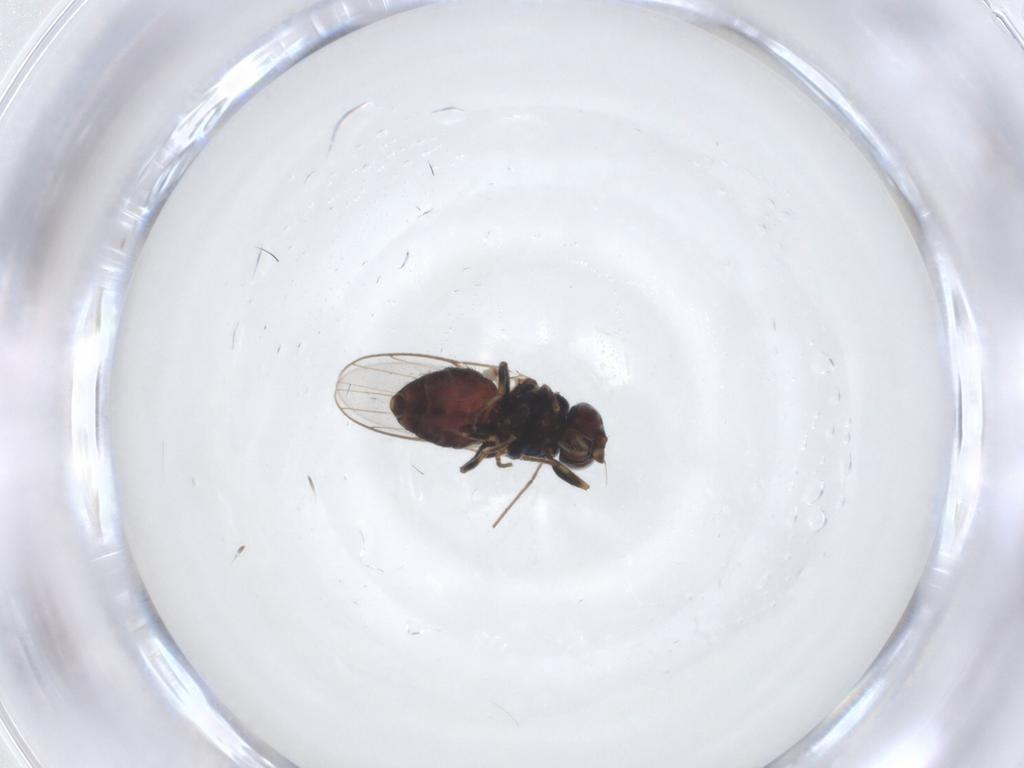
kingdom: Animalia
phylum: Arthropoda
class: Insecta
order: Diptera
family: Chloropidae
